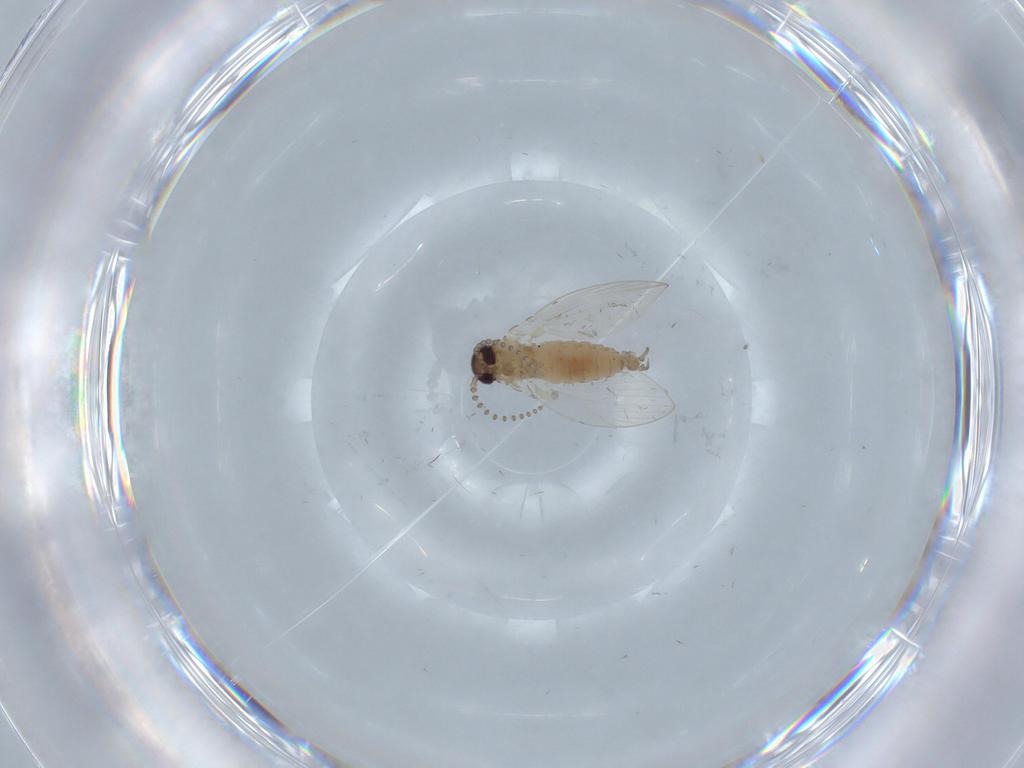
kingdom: Animalia
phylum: Arthropoda
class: Insecta
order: Diptera
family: Psychodidae
